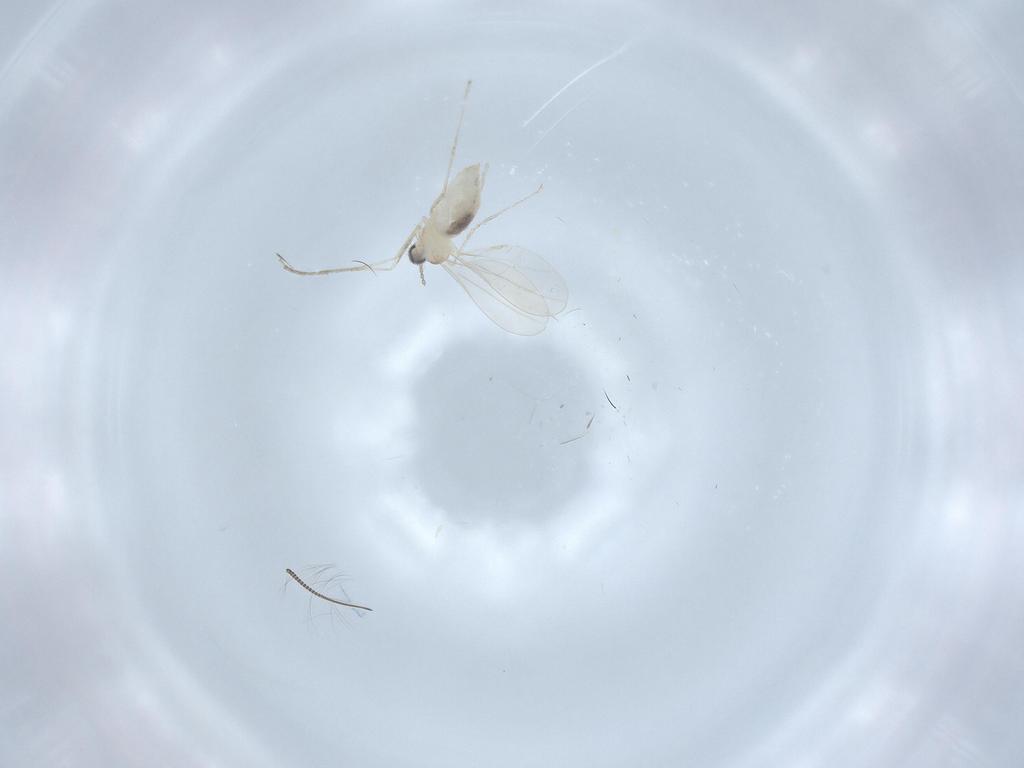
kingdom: Animalia
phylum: Arthropoda
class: Insecta
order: Diptera
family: Cecidomyiidae
